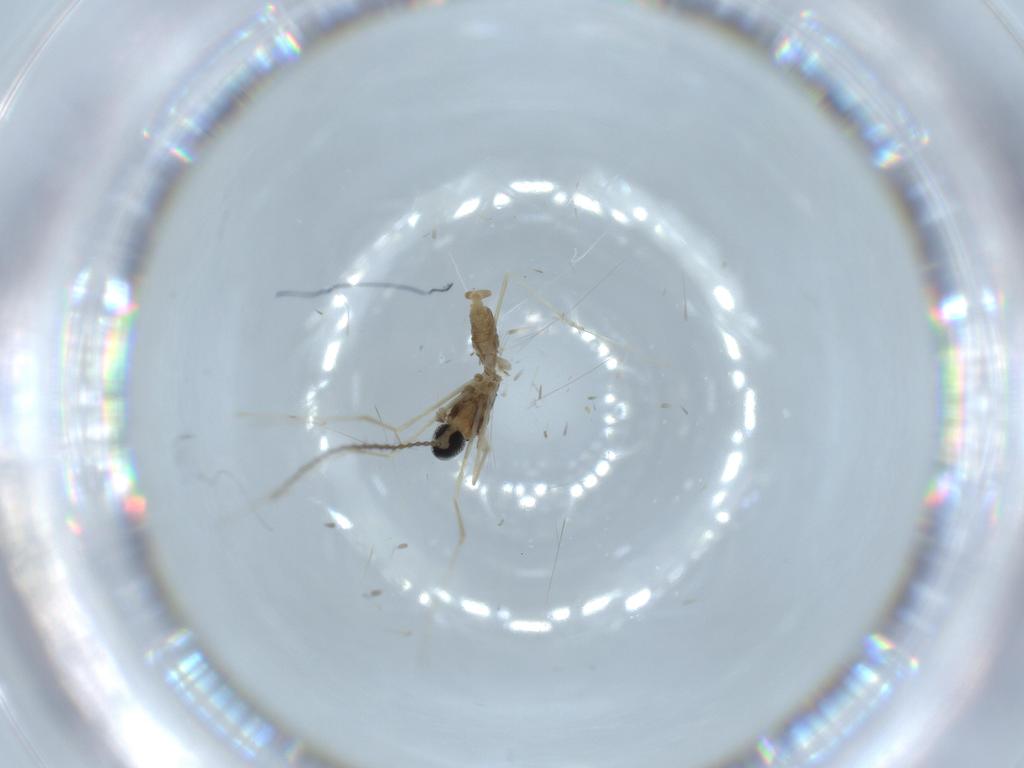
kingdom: Animalia
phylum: Arthropoda
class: Insecta
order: Diptera
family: Cecidomyiidae
